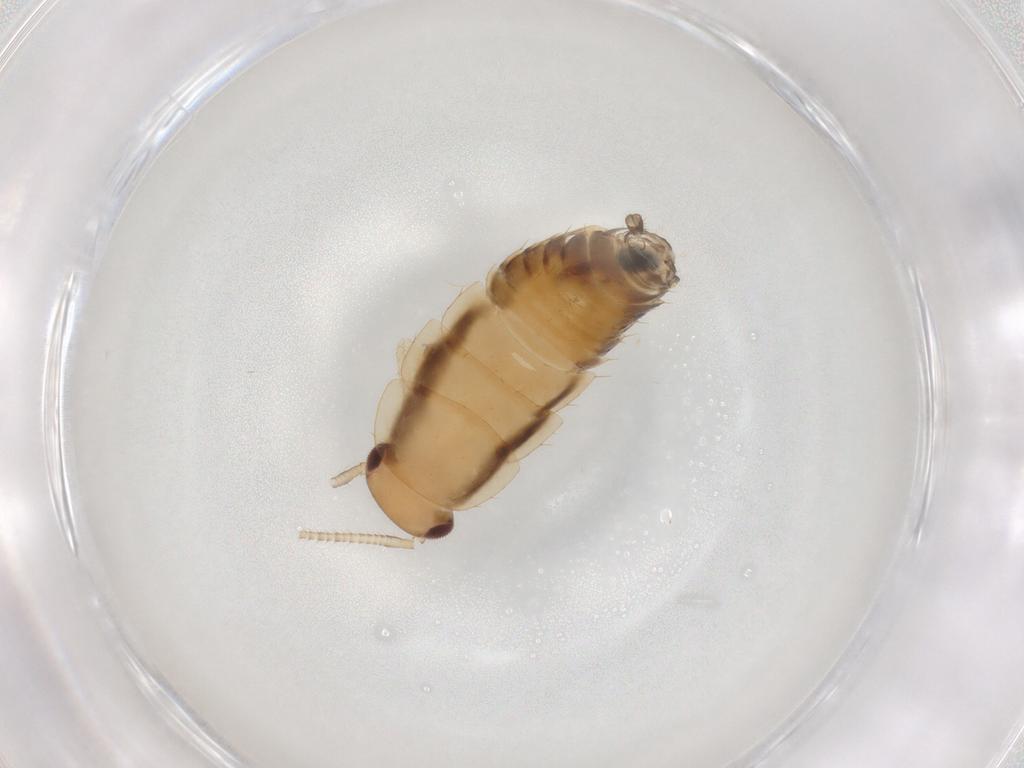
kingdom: Animalia
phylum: Arthropoda
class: Insecta
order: Blattodea
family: Ectobiidae
